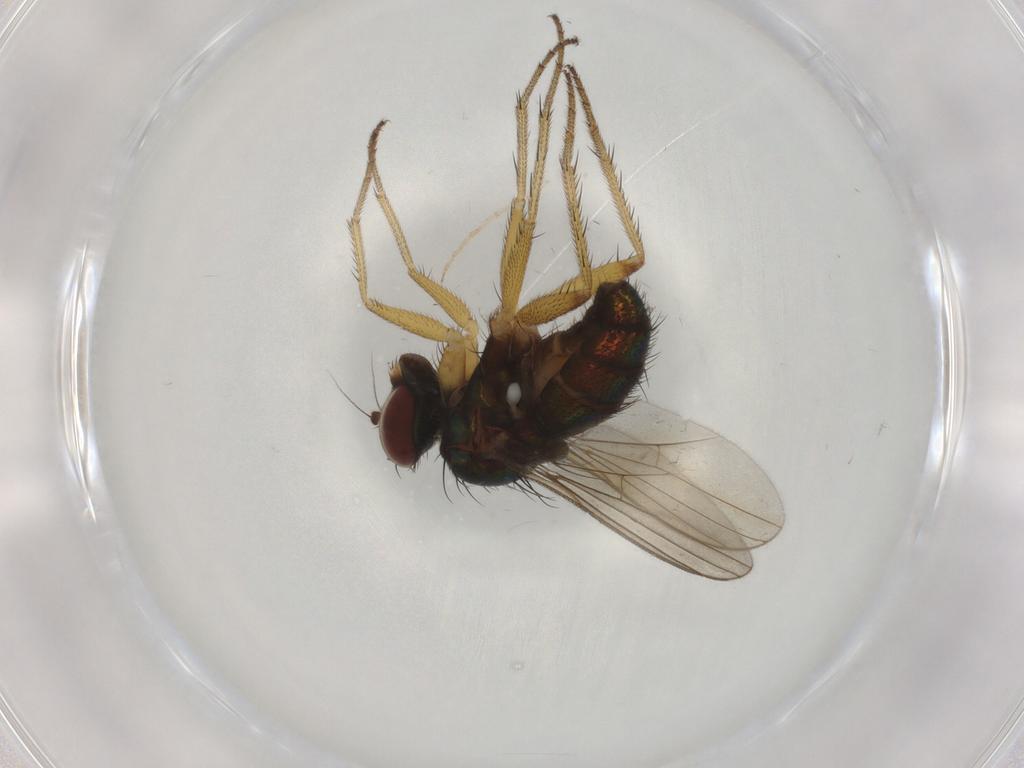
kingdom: Animalia
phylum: Arthropoda
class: Insecta
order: Diptera
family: Dolichopodidae
